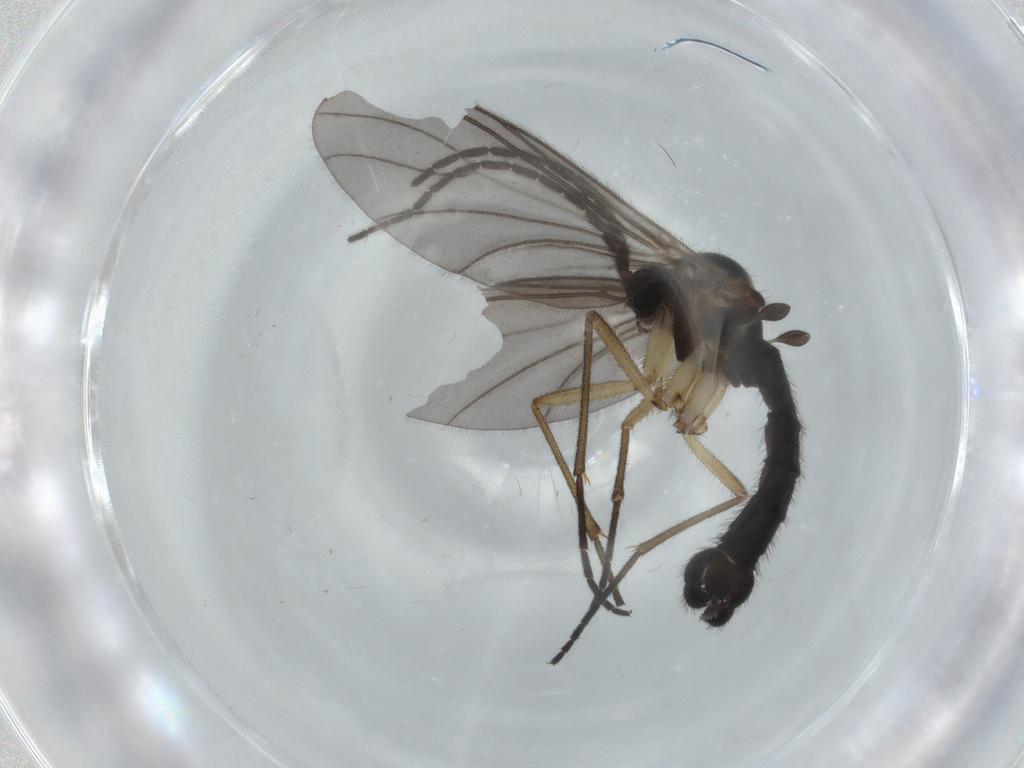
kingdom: Animalia
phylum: Arthropoda
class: Insecta
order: Diptera
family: Sciaridae
